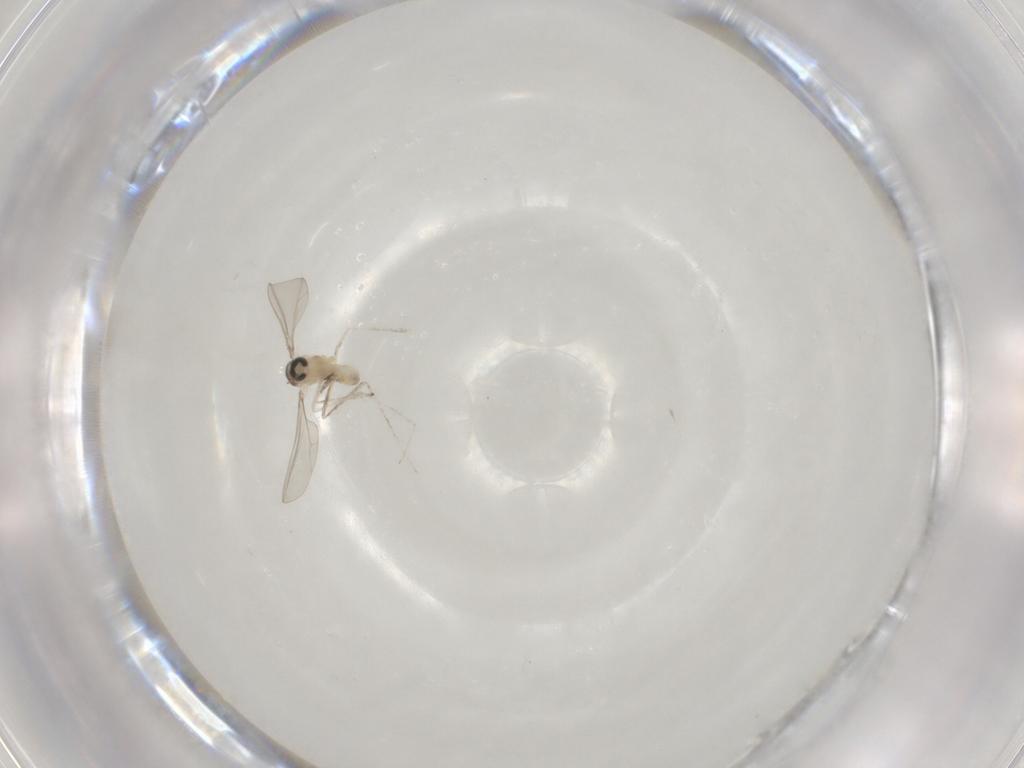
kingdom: Animalia
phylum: Arthropoda
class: Insecta
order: Diptera
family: Cecidomyiidae
